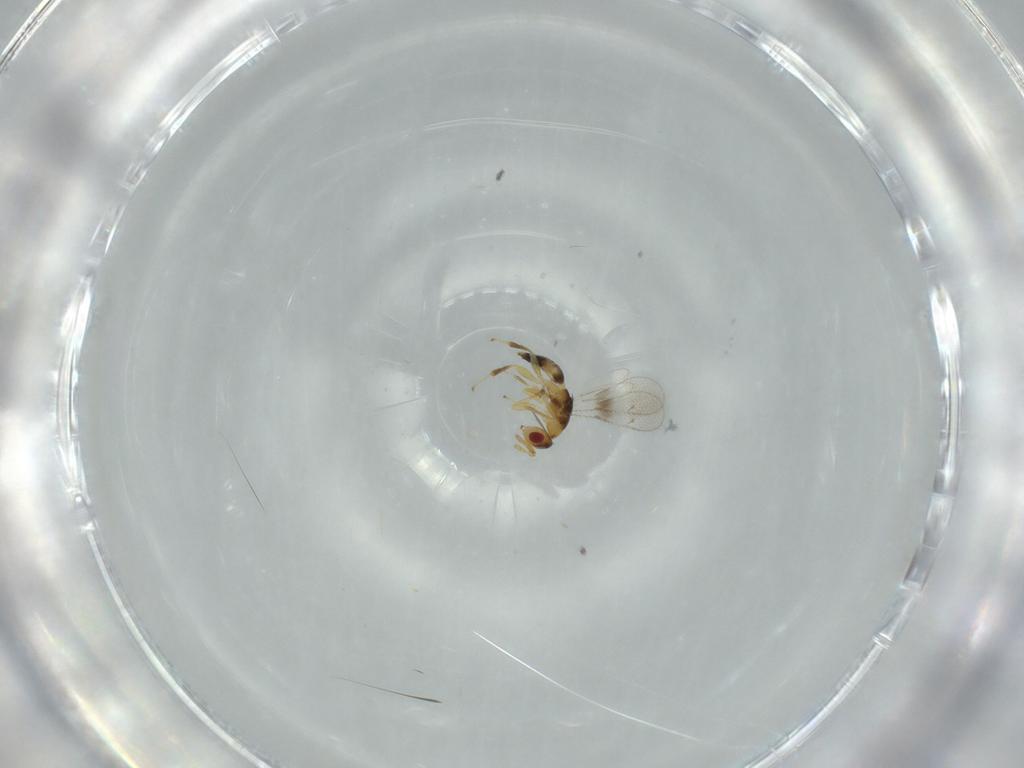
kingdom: Animalia
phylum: Arthropoda
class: Insecta
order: Hymenoptera
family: Torymidae
